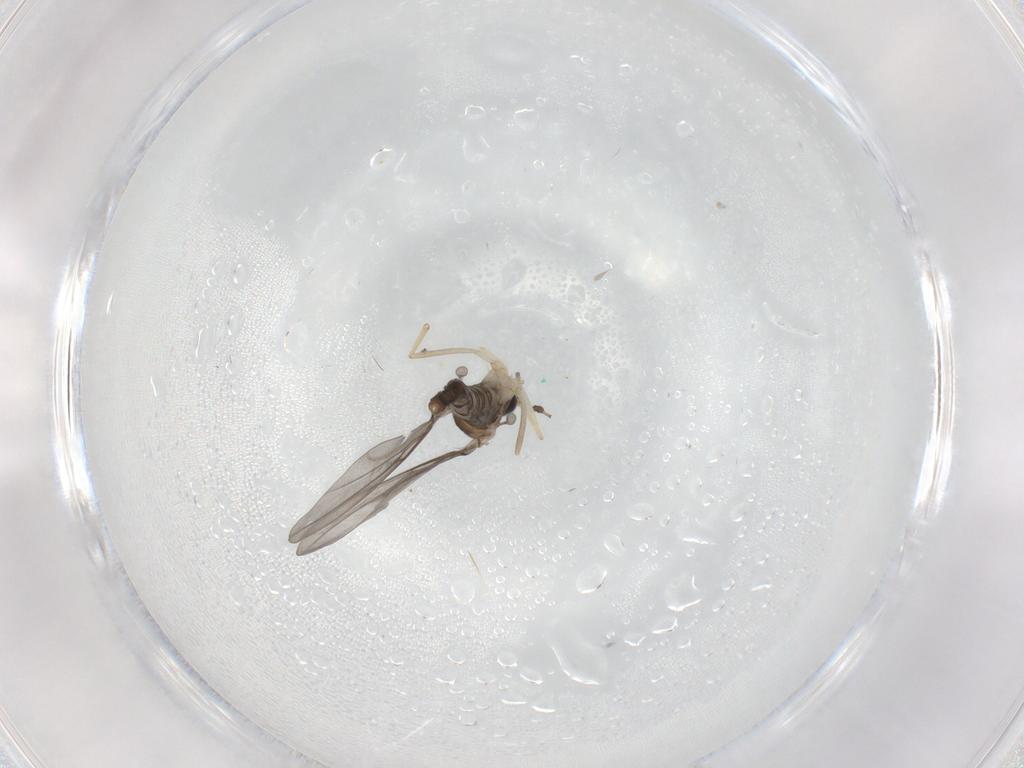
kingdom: Animalia
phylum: Arthropoda
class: Insecta
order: Diptera
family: Cecidomyiidae
